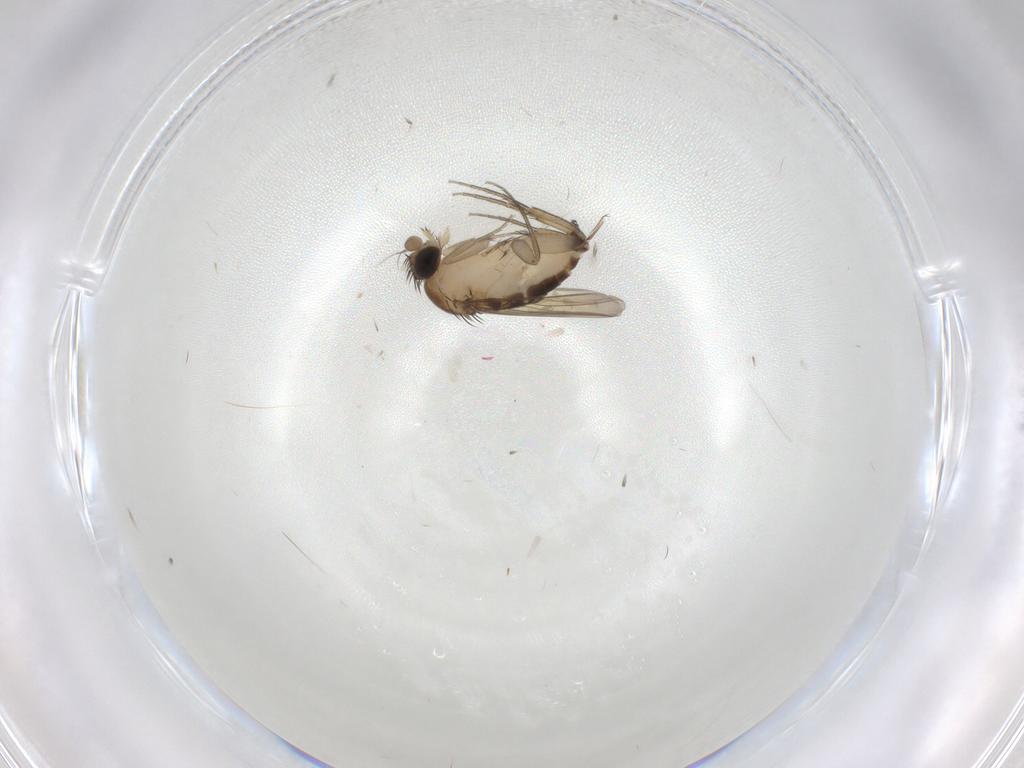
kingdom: Animalia
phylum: Arthropoda
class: Insecta
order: Diptera
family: Phoridae
